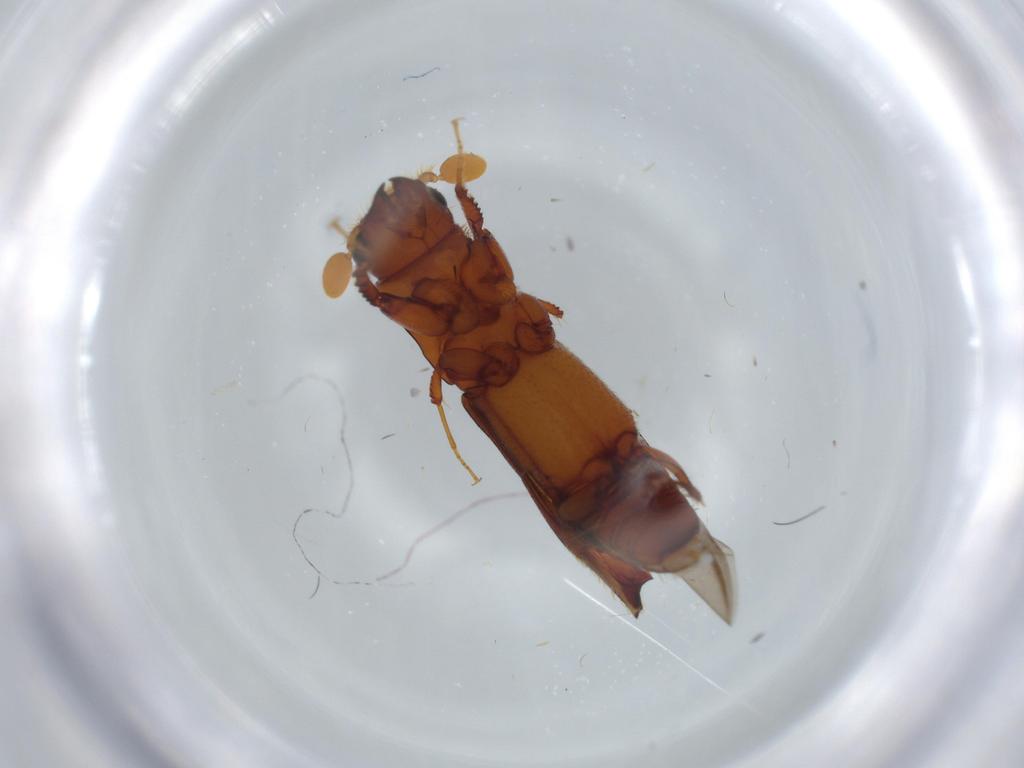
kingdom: Animalia
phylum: Arthropoda
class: Insecta
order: Coleoptera
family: Curculionidae
